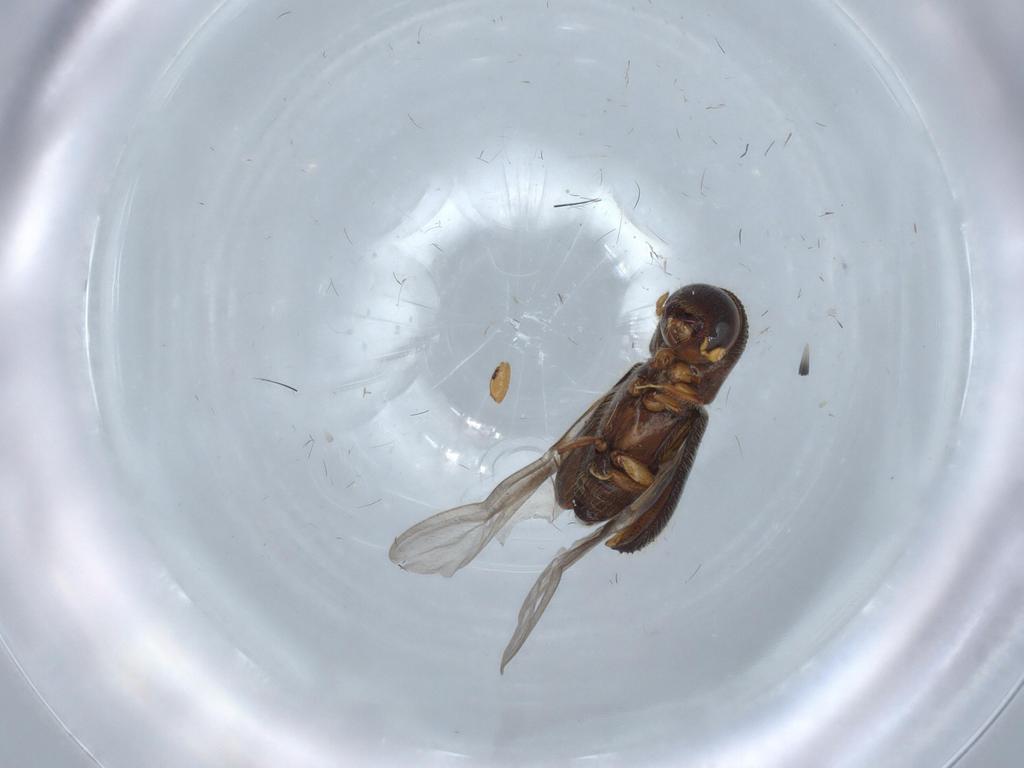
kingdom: Animalia
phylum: Arthropoda
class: Insecta
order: Coleoptera
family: Curculionidae
